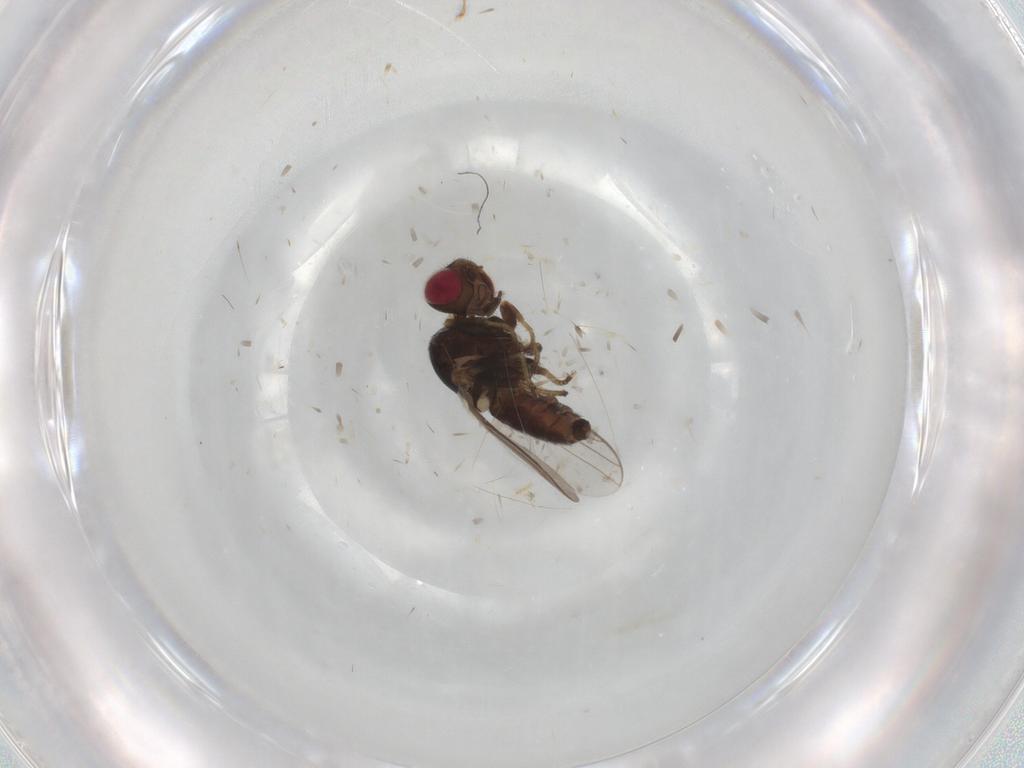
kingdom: Animalia
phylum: Arthropoda
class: Insecta
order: Diptera
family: Chloropidae
